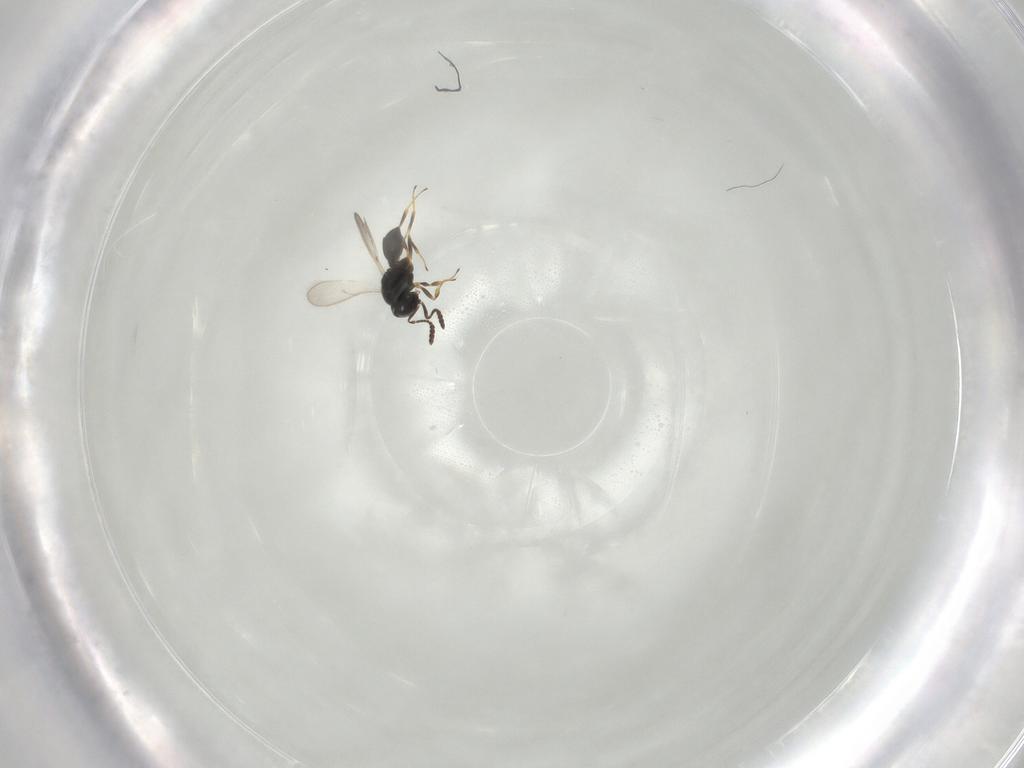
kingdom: Animalia
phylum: Arthropoda
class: Insecta
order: Hymenoptera
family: Scelionidae
